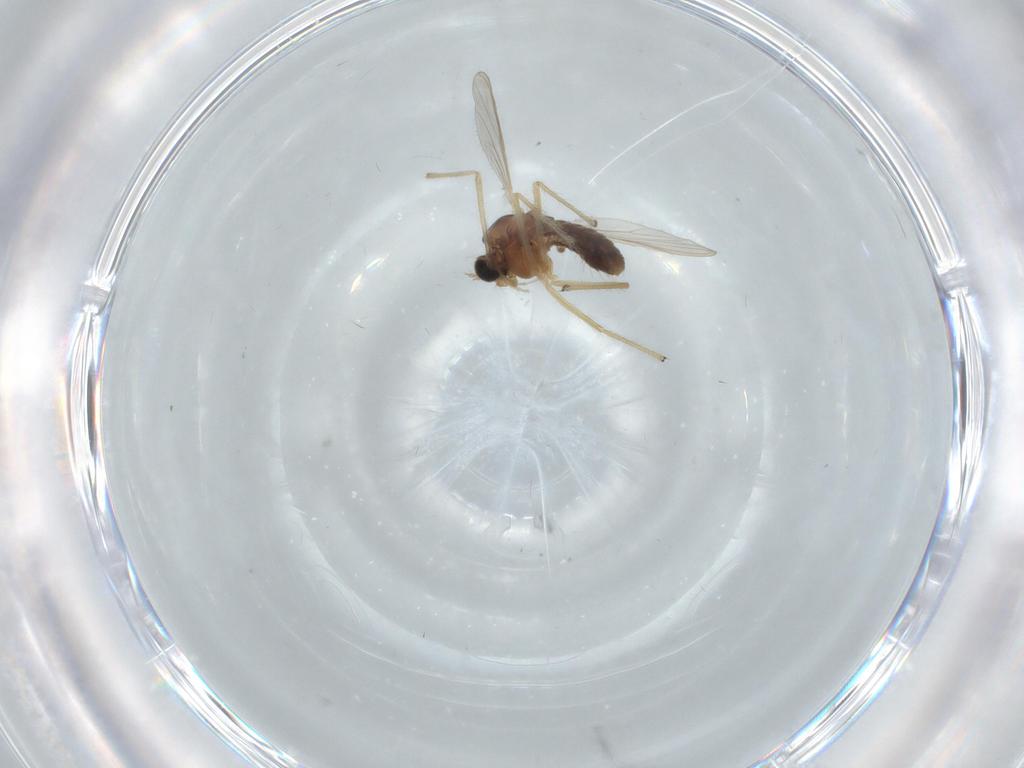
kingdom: Animalia
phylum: Arthropoda
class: Insecta
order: Diptera
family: Chironomidae
